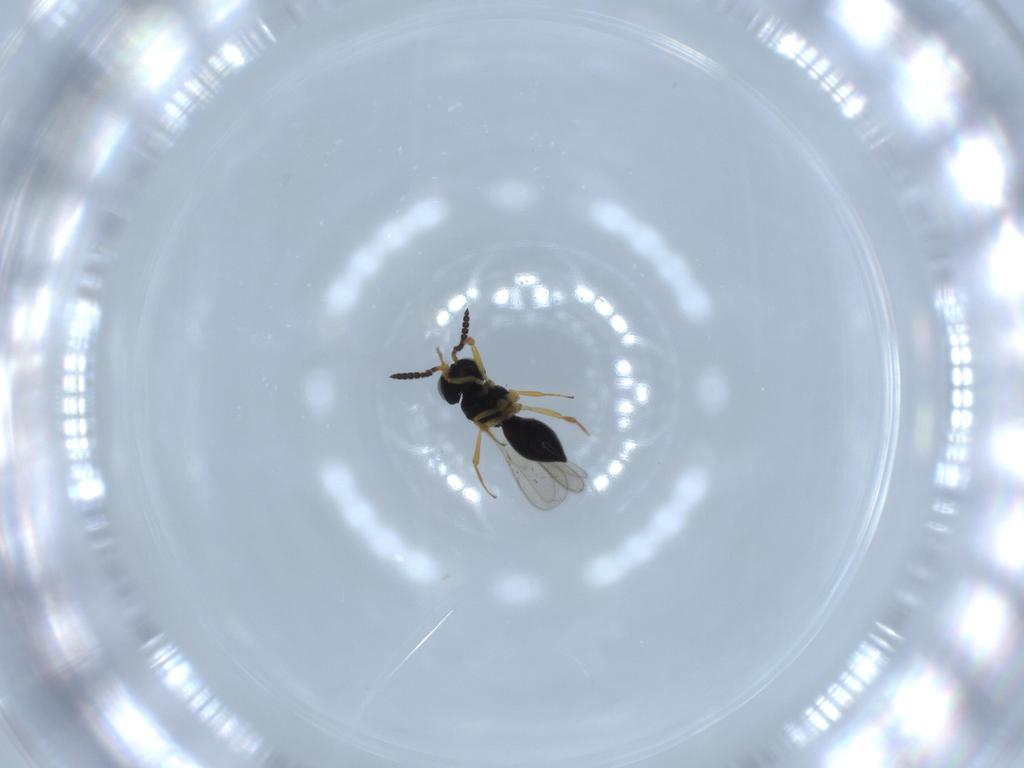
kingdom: Animalia
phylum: Arthropoda
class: Insecta
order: Hymenoptera
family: Scelionidae
